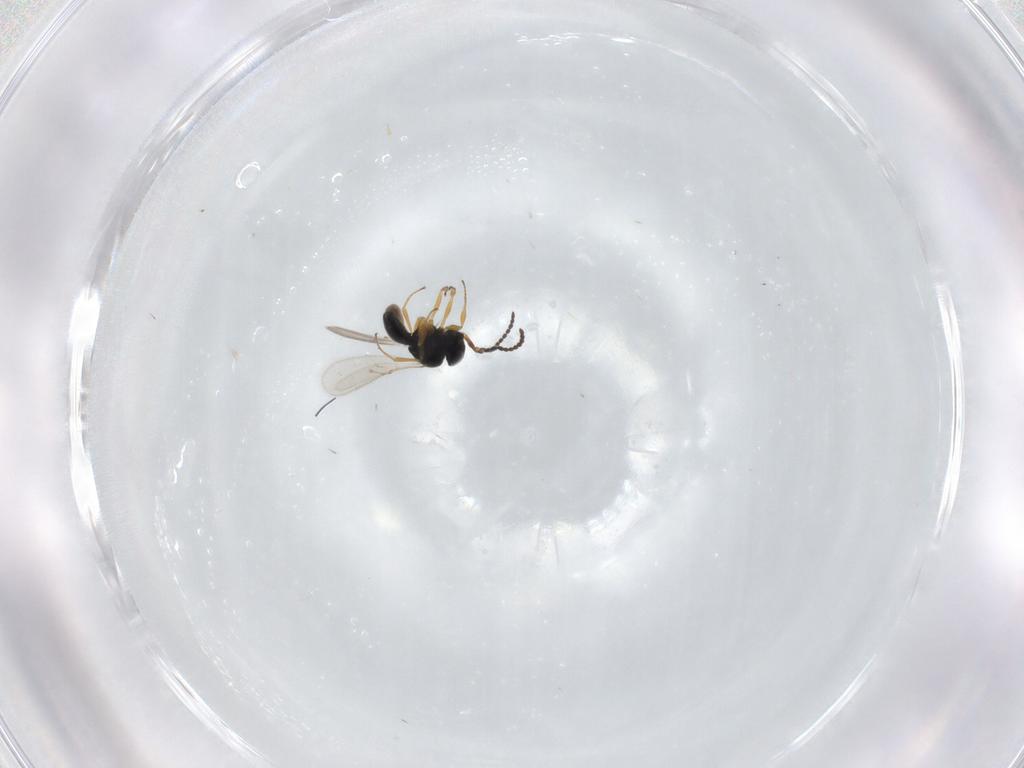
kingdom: Animalia
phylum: Arthropoda
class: Insecta
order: Hymenoptera
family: Scelionidae
